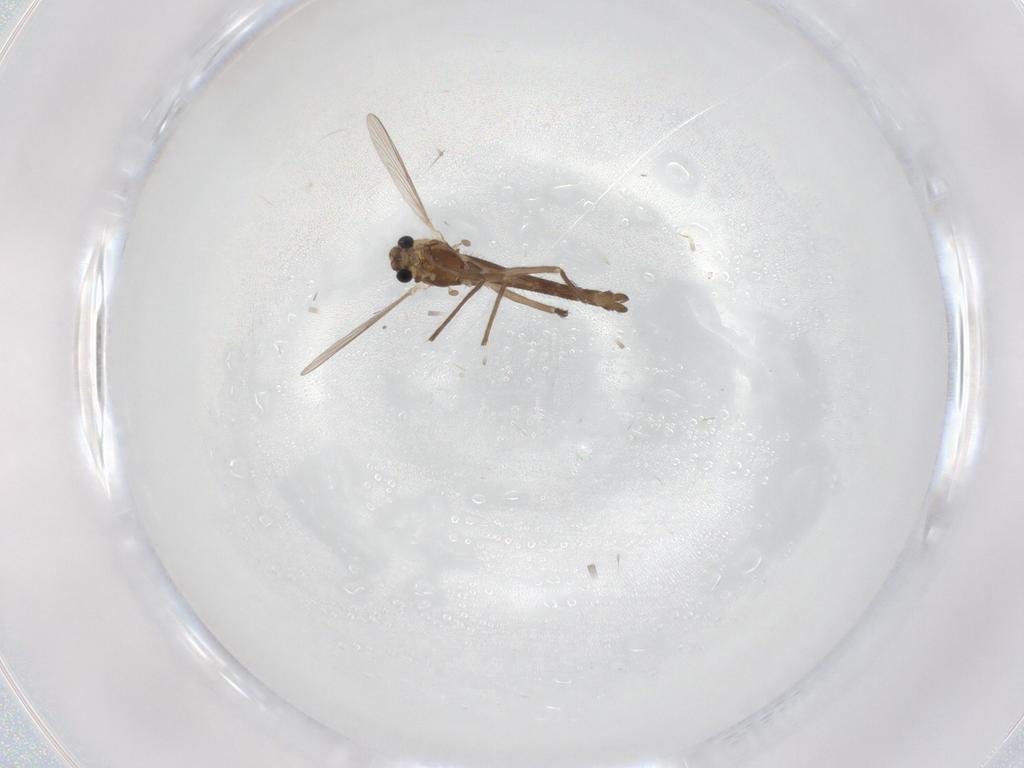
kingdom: Animalia
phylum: Arthropoda
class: Insecta
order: Diptera
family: Chironomidae
